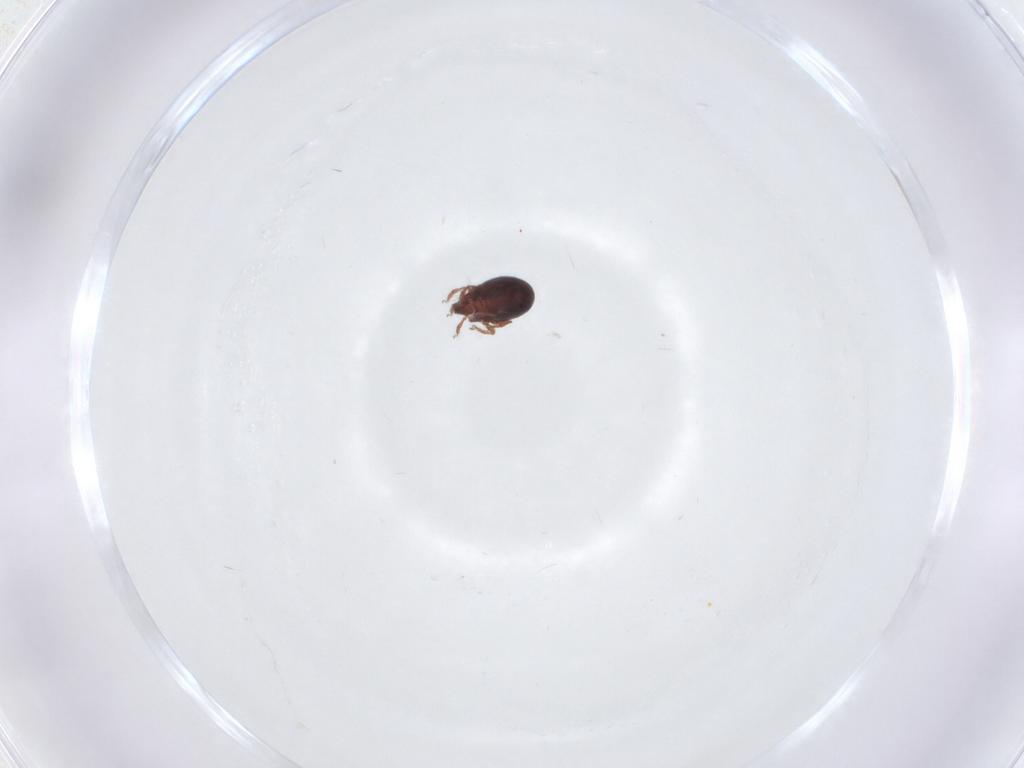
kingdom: Animalia
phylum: Arthropoda
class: Arachnida
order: Sarcoptiformes
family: Ceratozetidae
